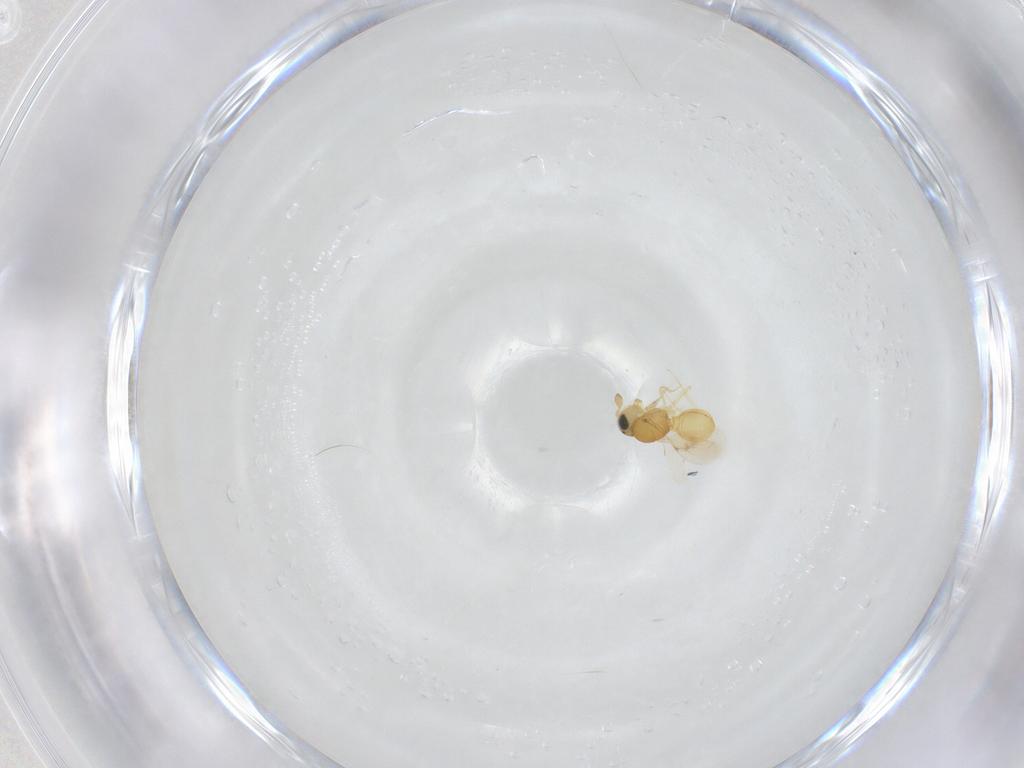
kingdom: Animalia
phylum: Arthropoda
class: Insecta
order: Hymenoptera
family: Scelionidae
